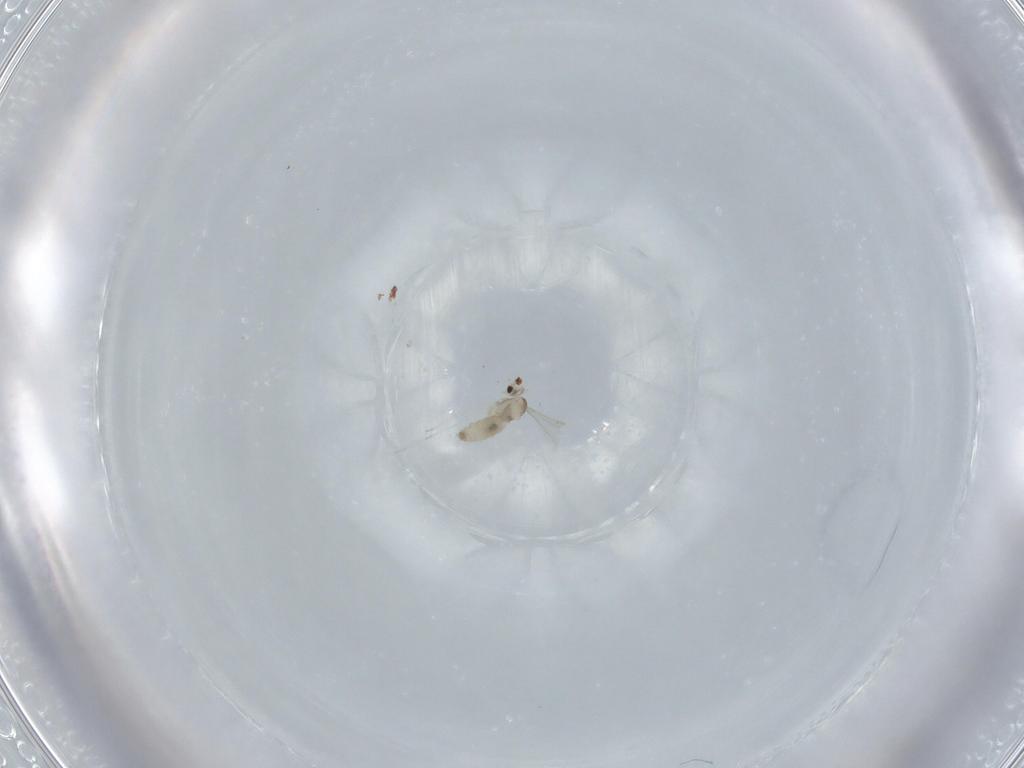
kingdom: Animalia
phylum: Arthropoda
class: Insecta
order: Diptera
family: Cecidomyiidae
